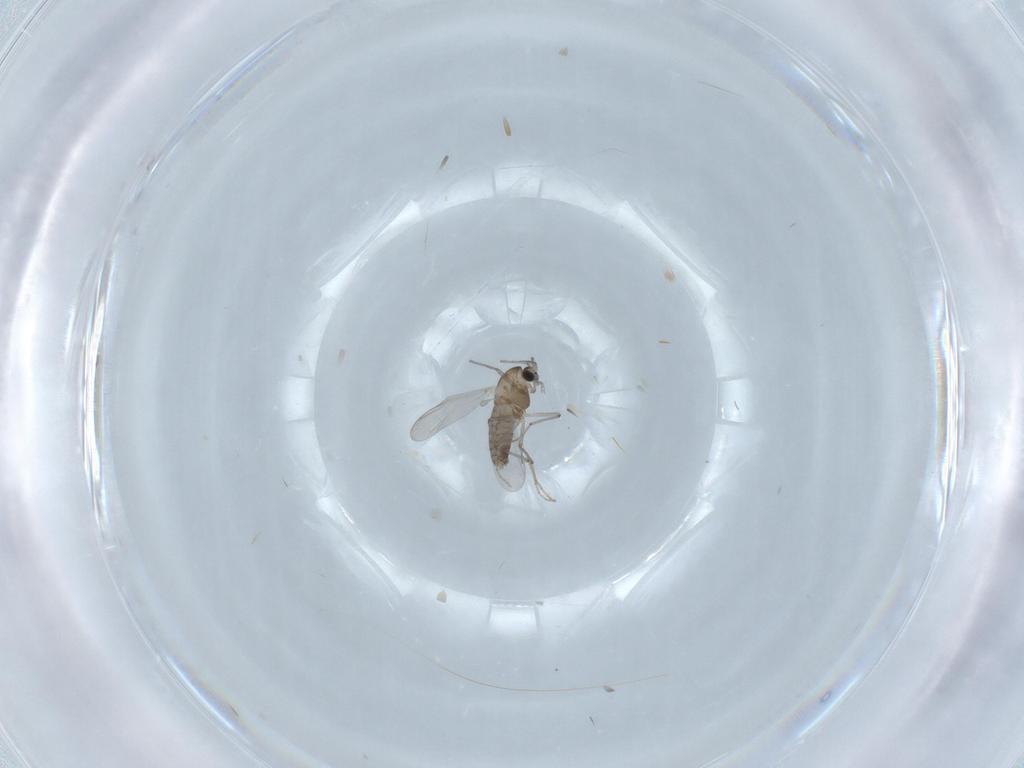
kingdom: Animalia
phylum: Arthropoda
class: Insecta
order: Diptera
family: Chironomidae
